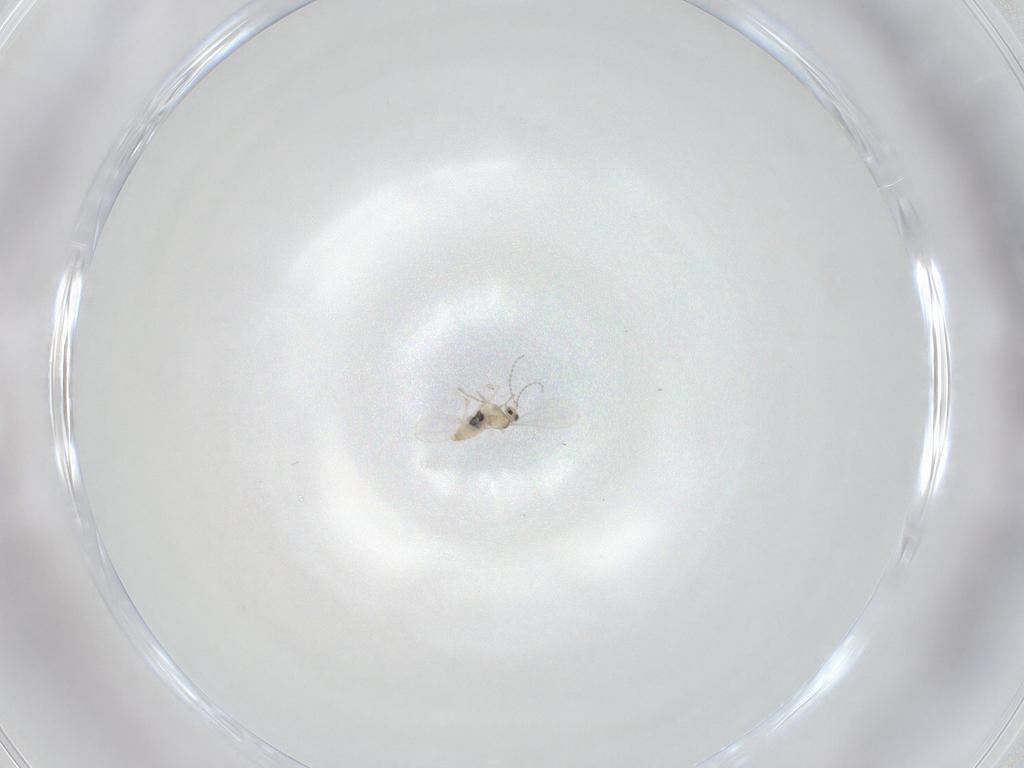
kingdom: Animalia
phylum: Arthropoda
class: Insecta
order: Diptera
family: Cecidomyiidae
